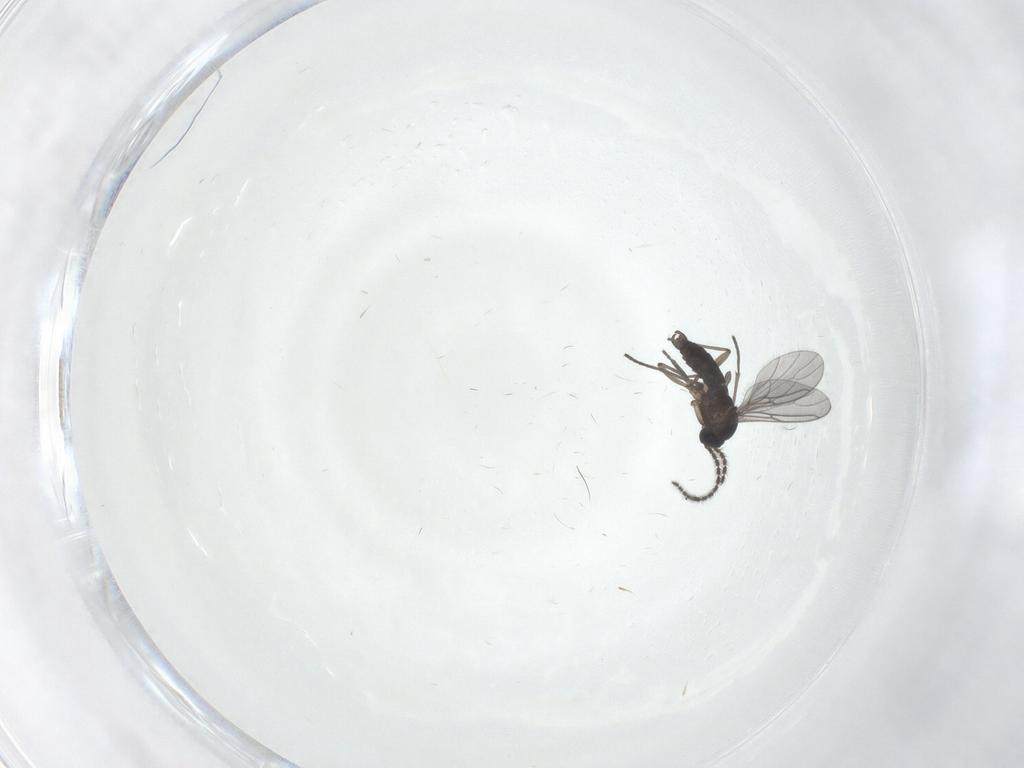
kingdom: Animalia
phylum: Arthropoda
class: Insecta
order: Diptera
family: Sciaridae
